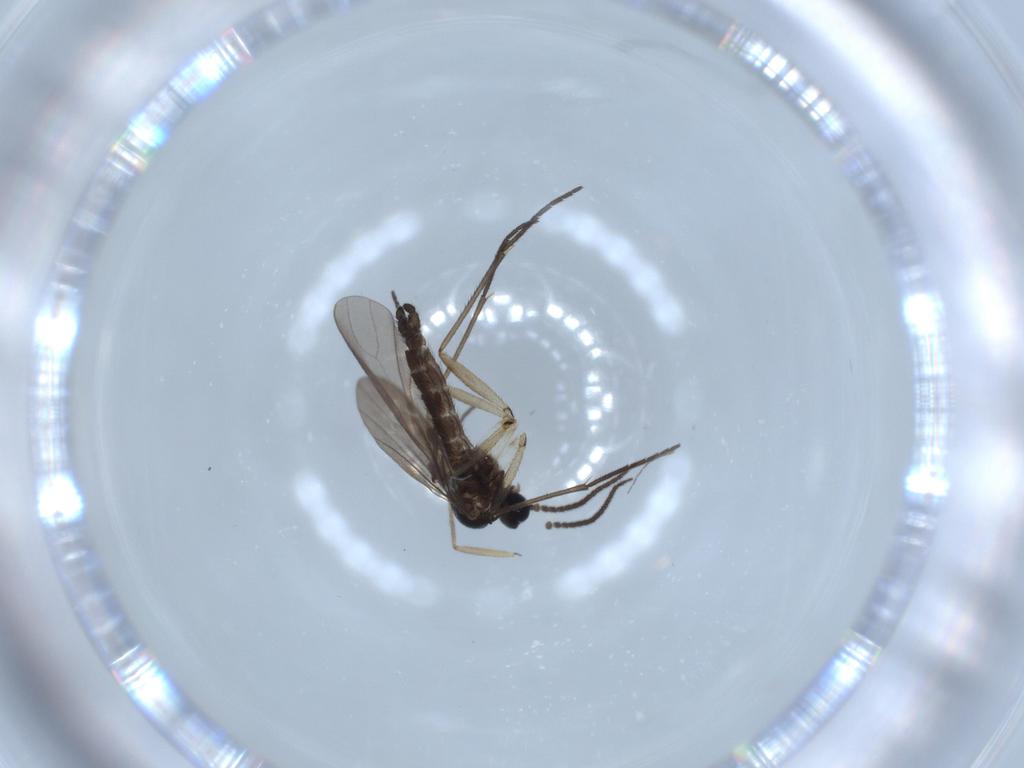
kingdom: Animalia
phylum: Arthropoda
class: Insecta
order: Diptera
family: Sciaridae
